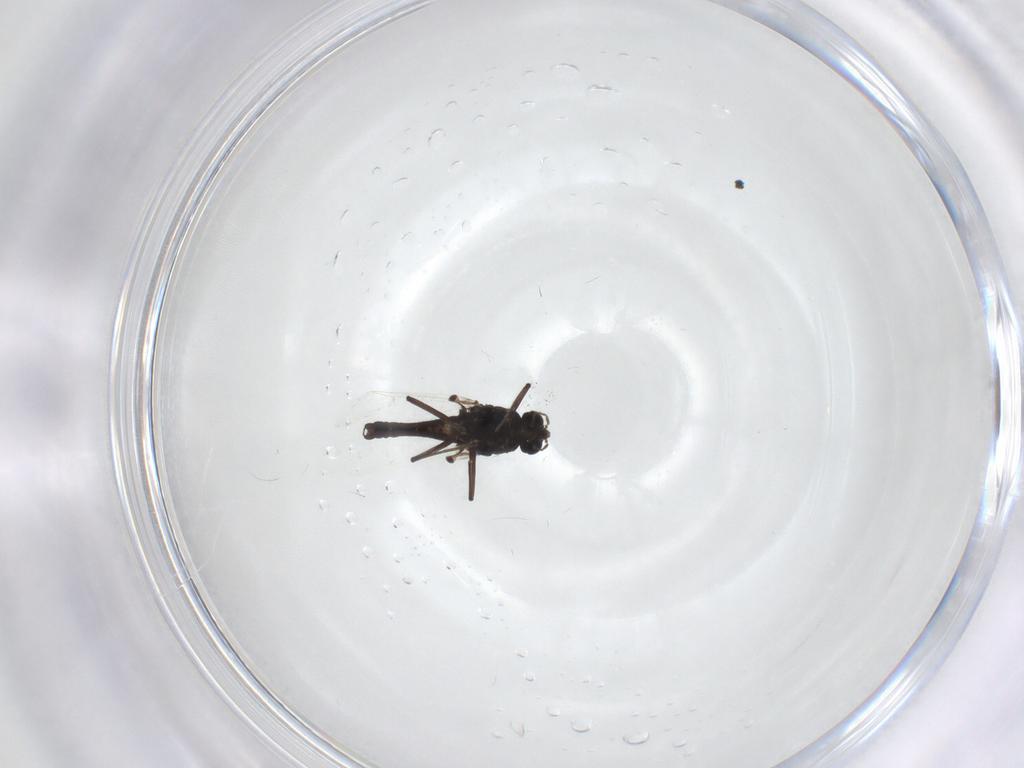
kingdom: Animalia
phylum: Arthropoda
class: Insecta
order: Diptera
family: Chironomidae
